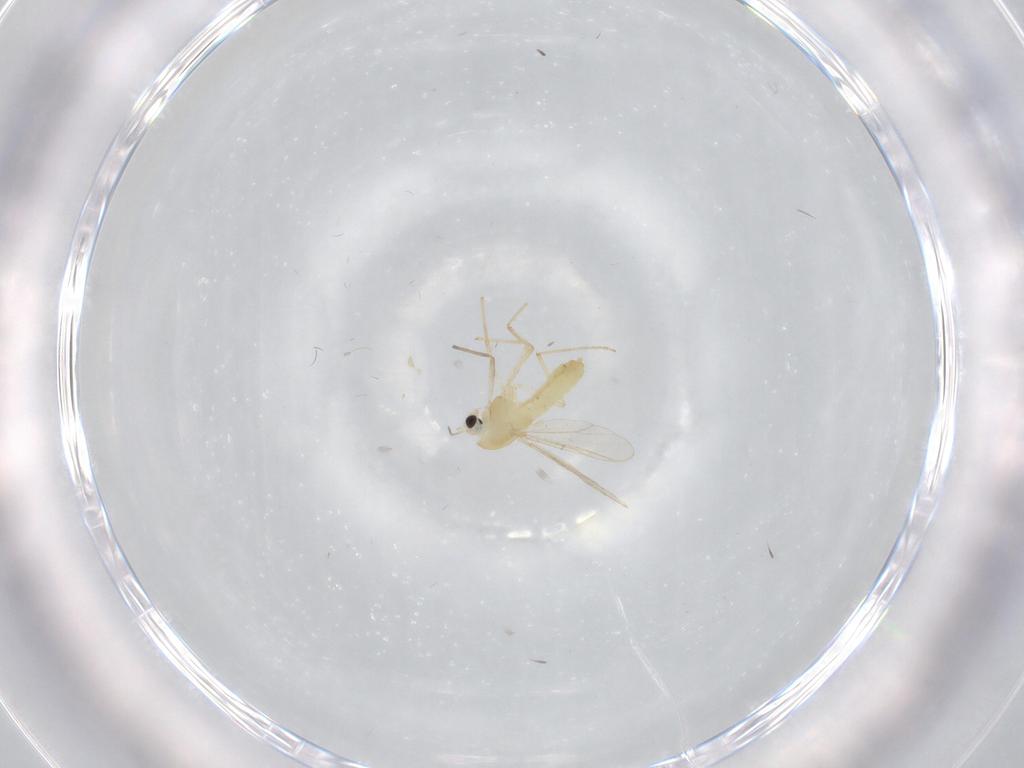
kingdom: Animalia
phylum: Arthropoda
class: Insecta
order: Diptera
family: Chironomidae
